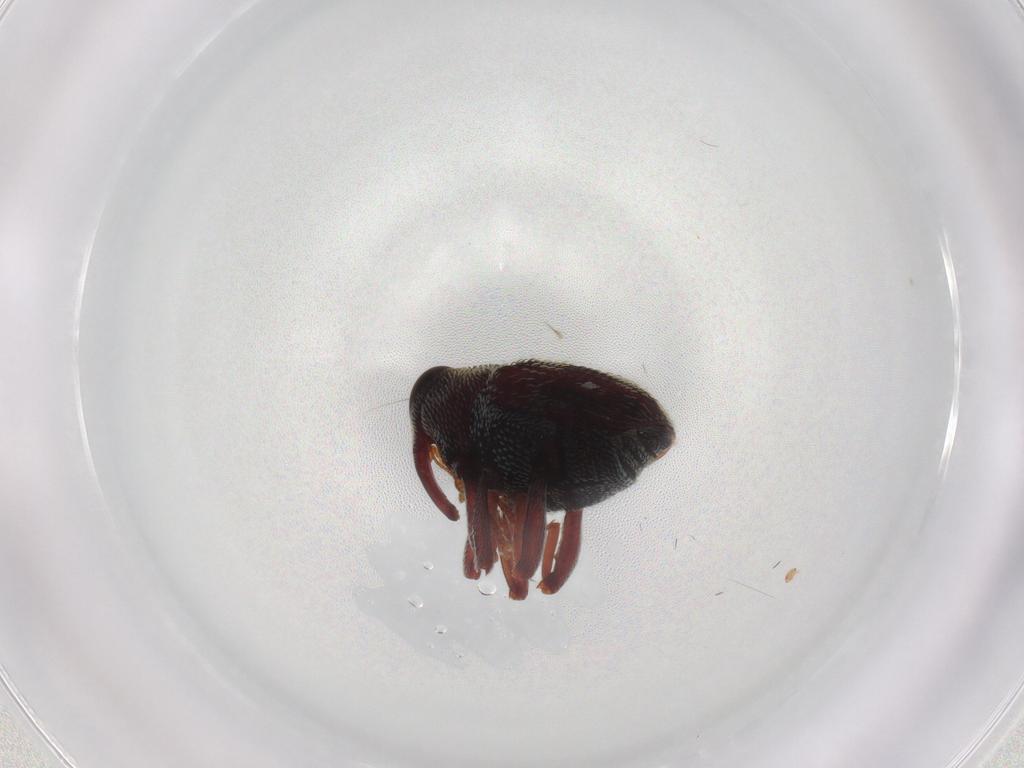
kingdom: Animalia
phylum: Arthropoda
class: Insecta
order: Coleoptera
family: Curculionidae
